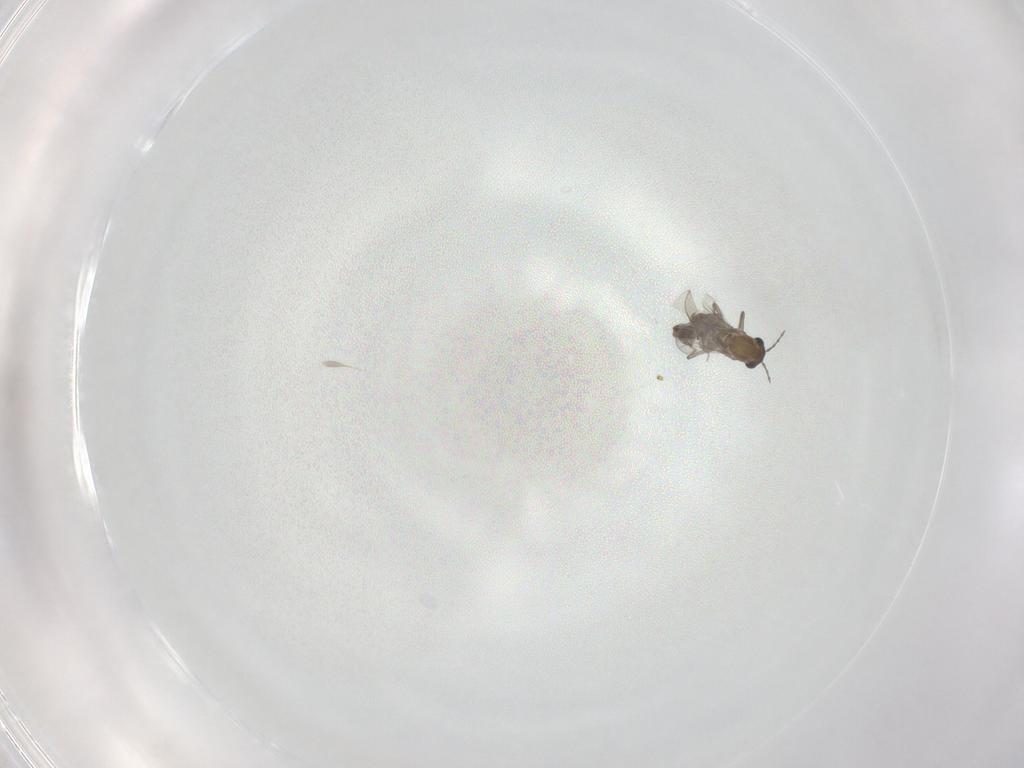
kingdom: Animalia
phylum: Arthropoda
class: Insecta
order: Diptera
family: Chironomidae
